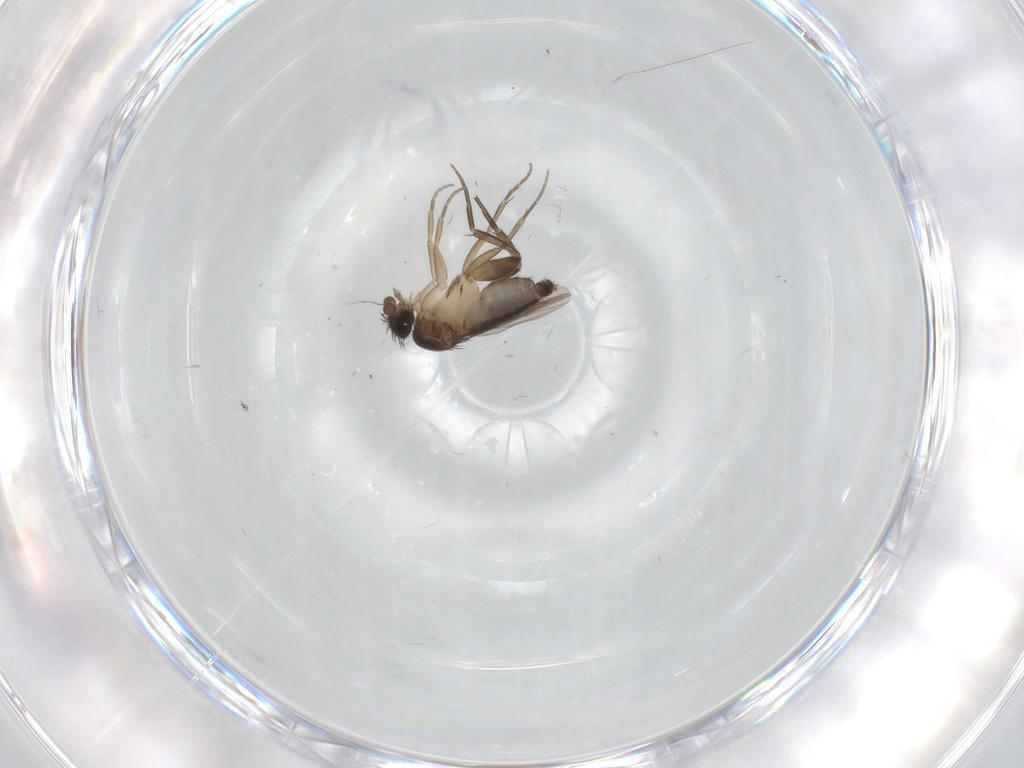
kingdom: Animalia
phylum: Arthropoda
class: Insecta
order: Diptera
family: Phoridae
